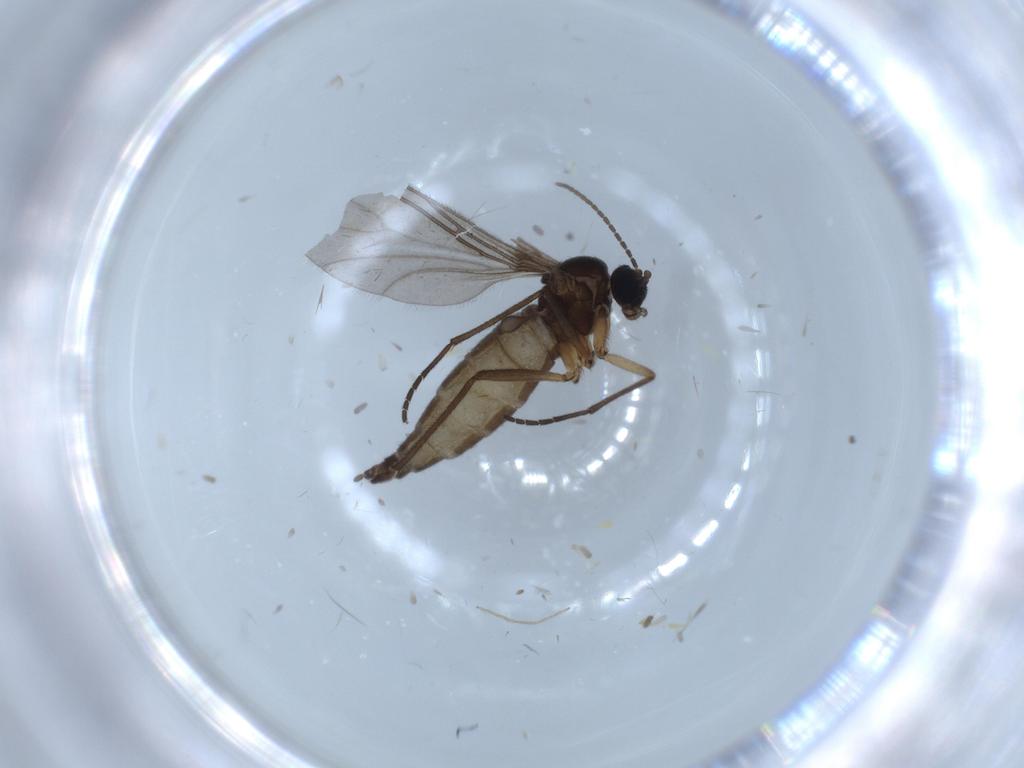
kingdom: Animalia
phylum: Arthropoda
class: Insecta
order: Diptera
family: Sciaridae
